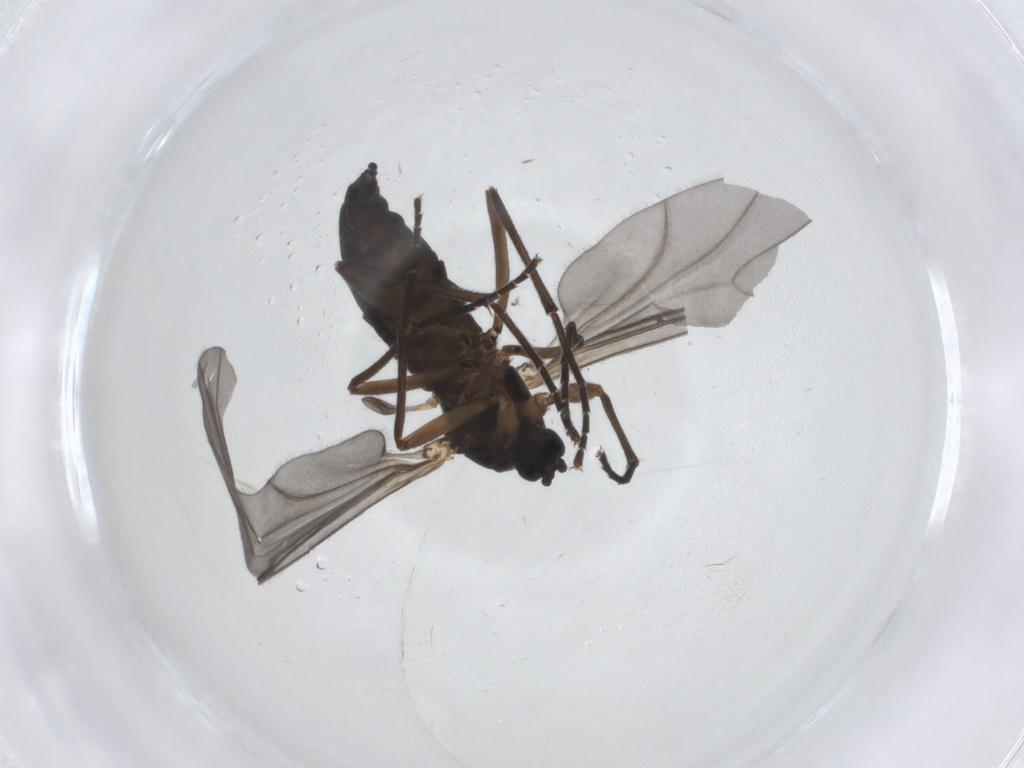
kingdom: Animalia
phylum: Arthropoda
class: Insecta
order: Diptera
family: Sciaridae
